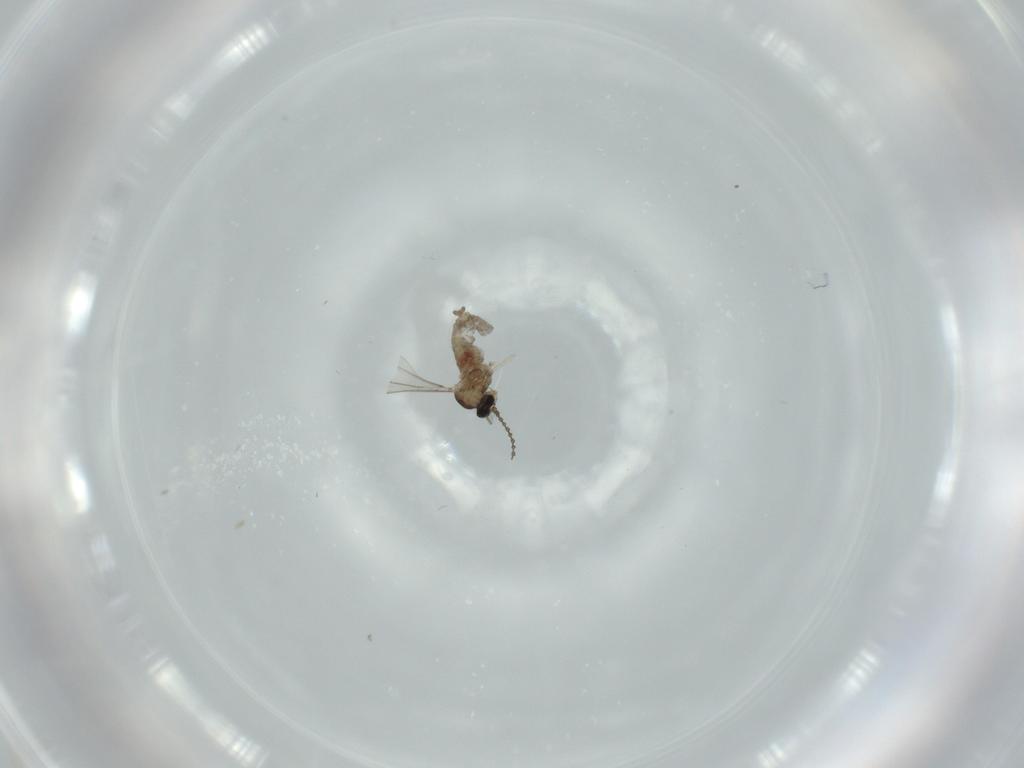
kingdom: Animalia
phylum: Arthropoda
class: Insecta
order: Diptera
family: Cecidomyiidae
